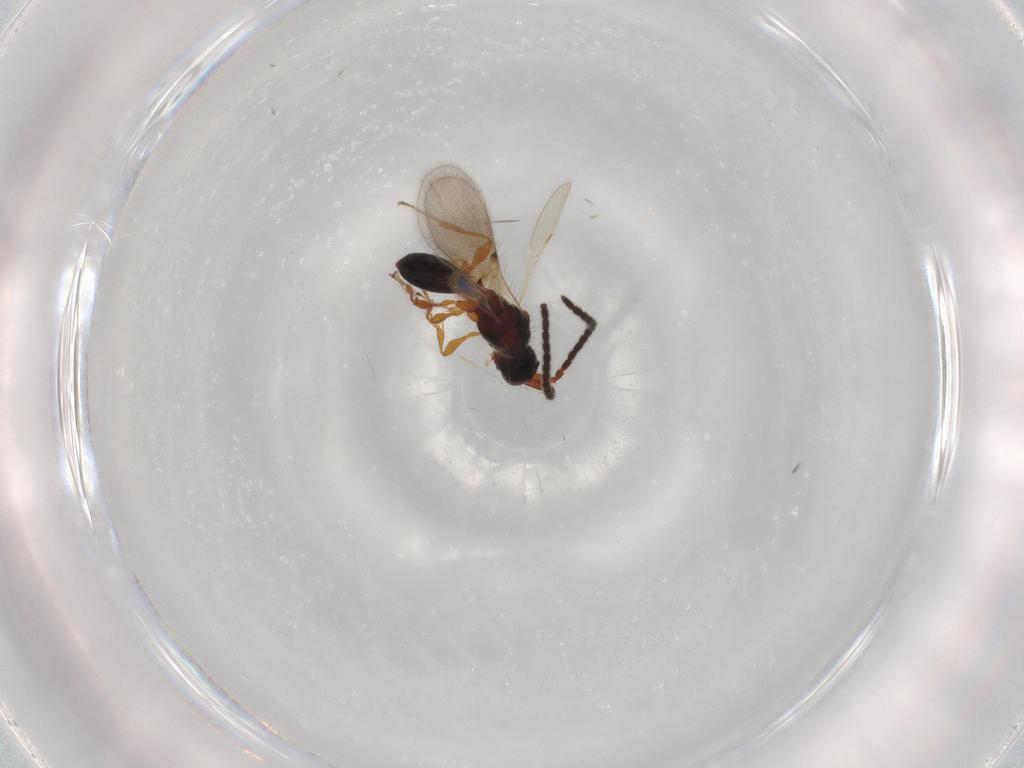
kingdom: Animalia
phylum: Arthropoda
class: Insecta
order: Hymenoptera
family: Diapriidae
